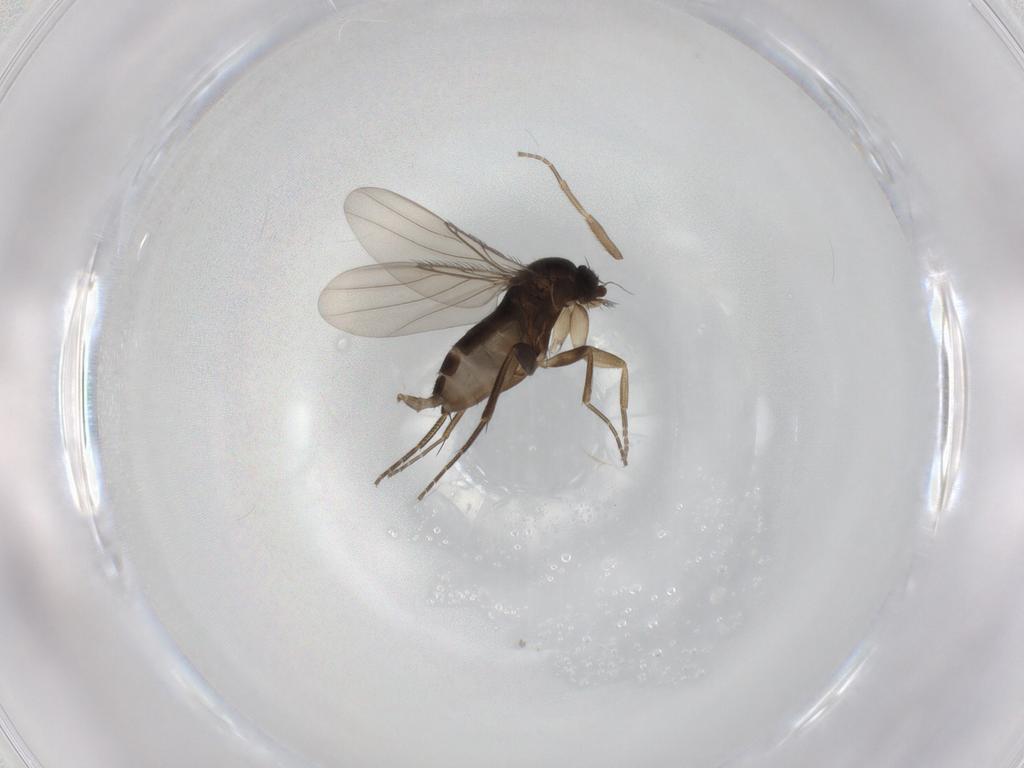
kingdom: Animalia
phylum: Arthropoda
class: Insecta
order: Diptera
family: Phoridae
